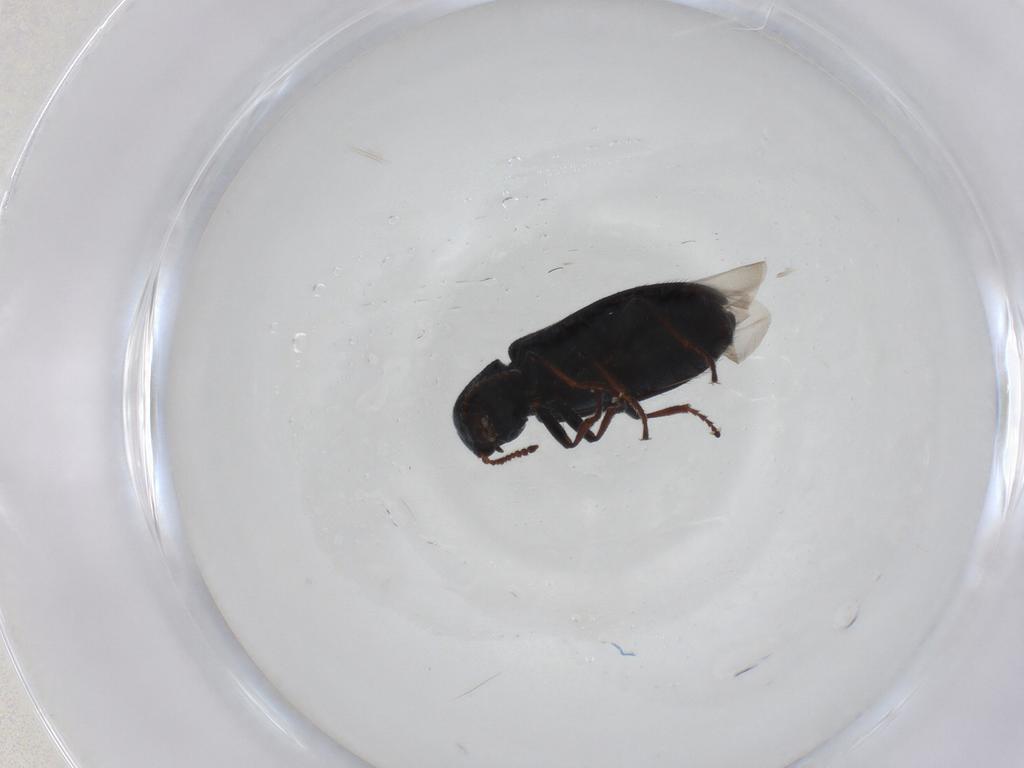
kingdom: Animalia
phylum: Arthropoda
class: Insecta
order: Coleoptera
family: Melyridae
